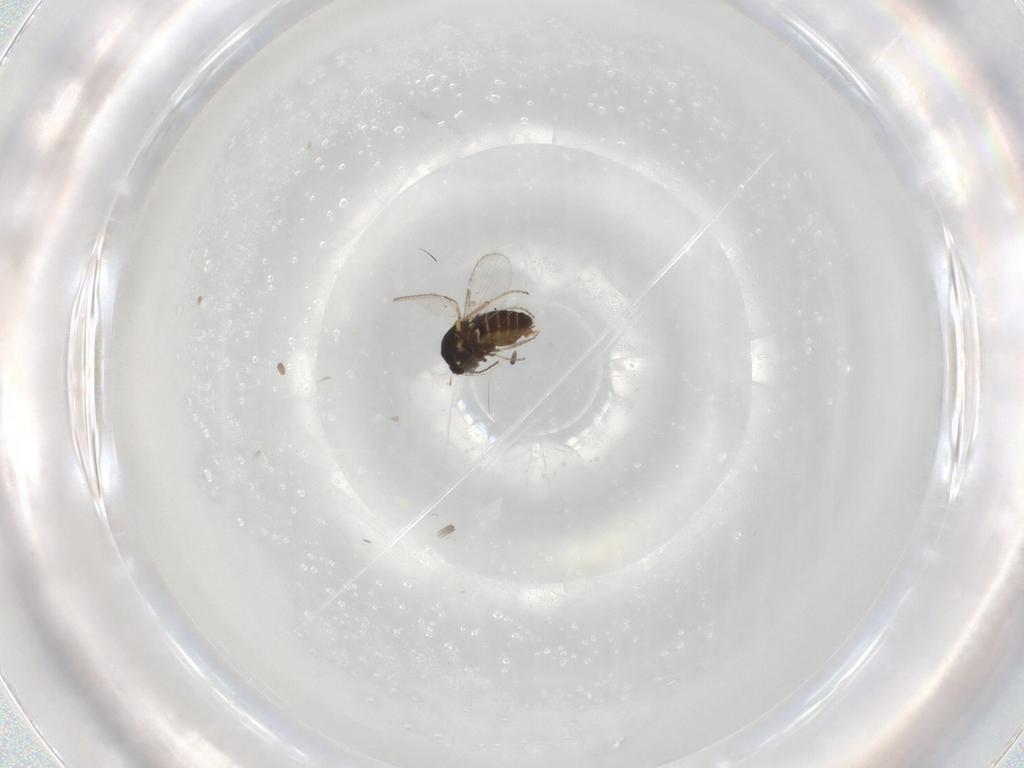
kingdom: Animalia
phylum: Arthropoda
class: Insecta
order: Diptera
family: Ceratopogonidae
